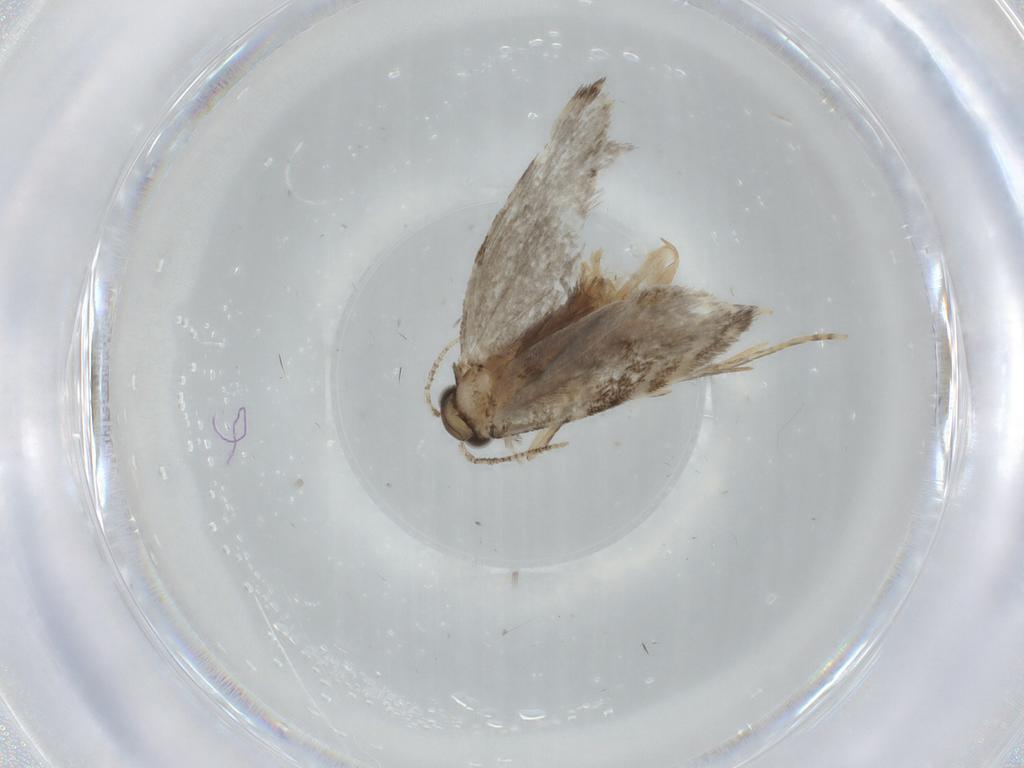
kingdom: Animalia
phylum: Arthropoda
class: Insecta
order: Lepidoptera
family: Tineidae
